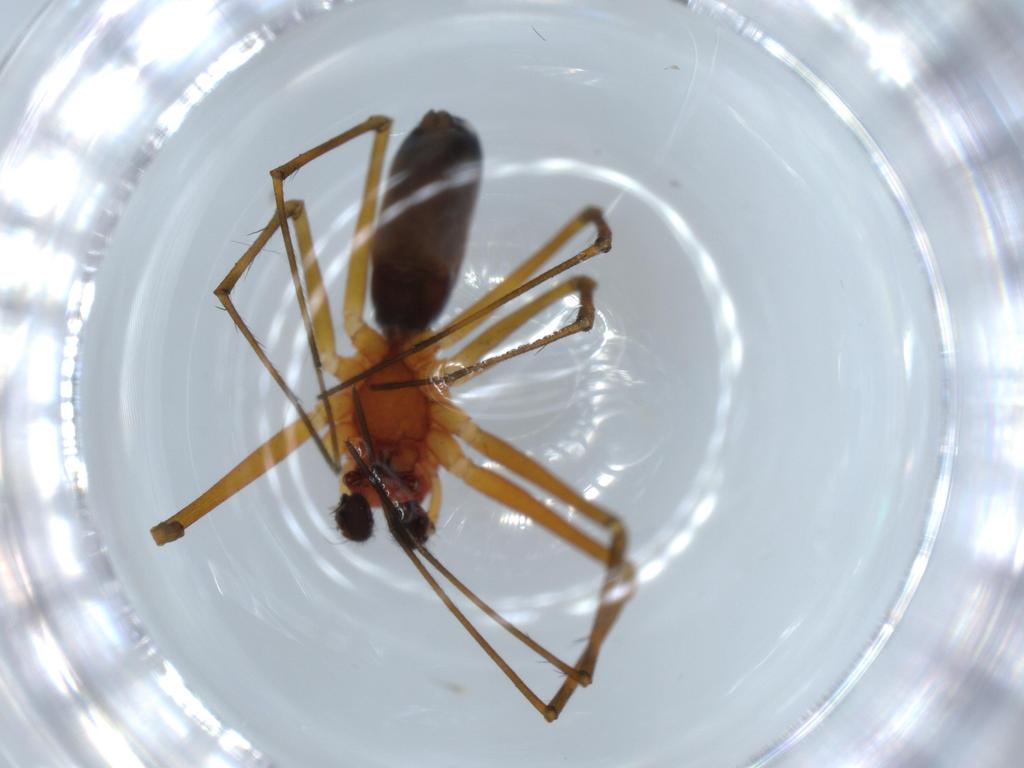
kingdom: Animalia
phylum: Arthropoda
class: Arachnida
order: Araneae
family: Linyphiidae
